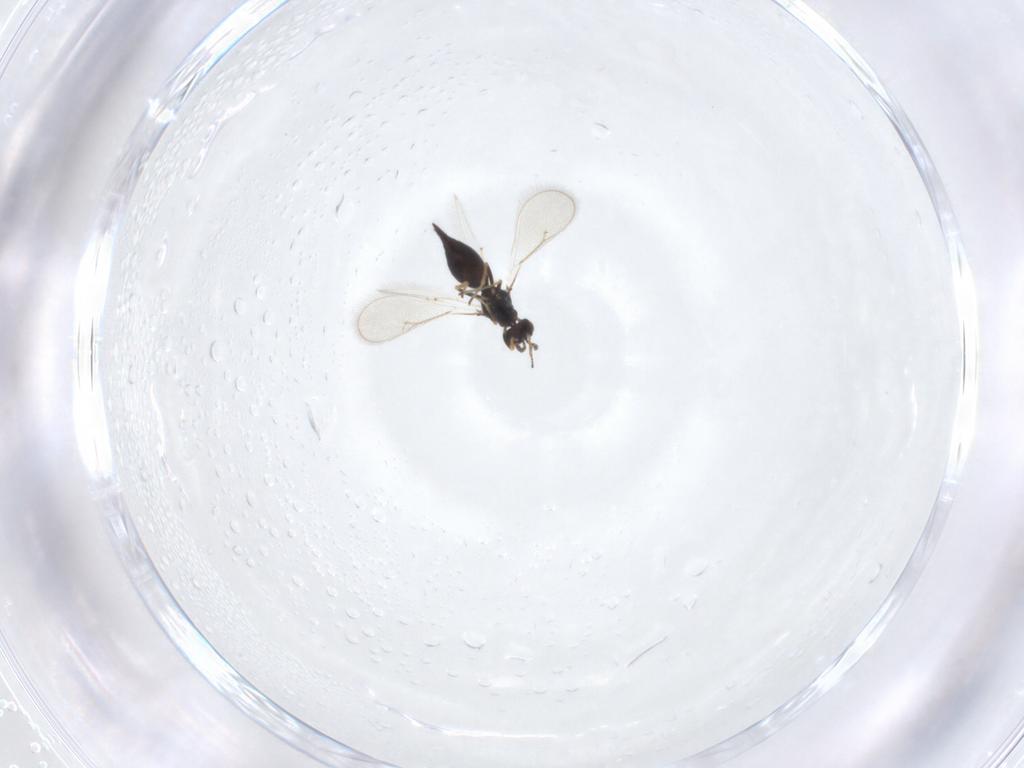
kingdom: Animalia
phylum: Arthropoda
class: Insecta
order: Hymenoptera
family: Eulophidae
